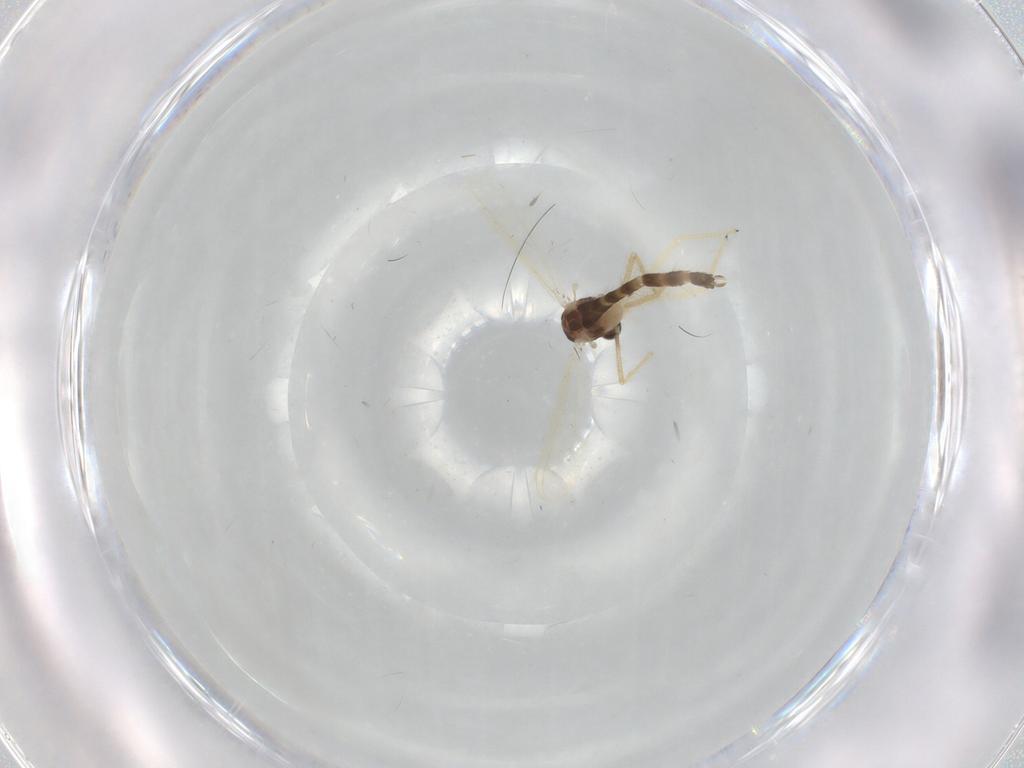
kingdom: Animalia
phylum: Arthropoda
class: Insecta
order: Diptera
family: Chironomidae
